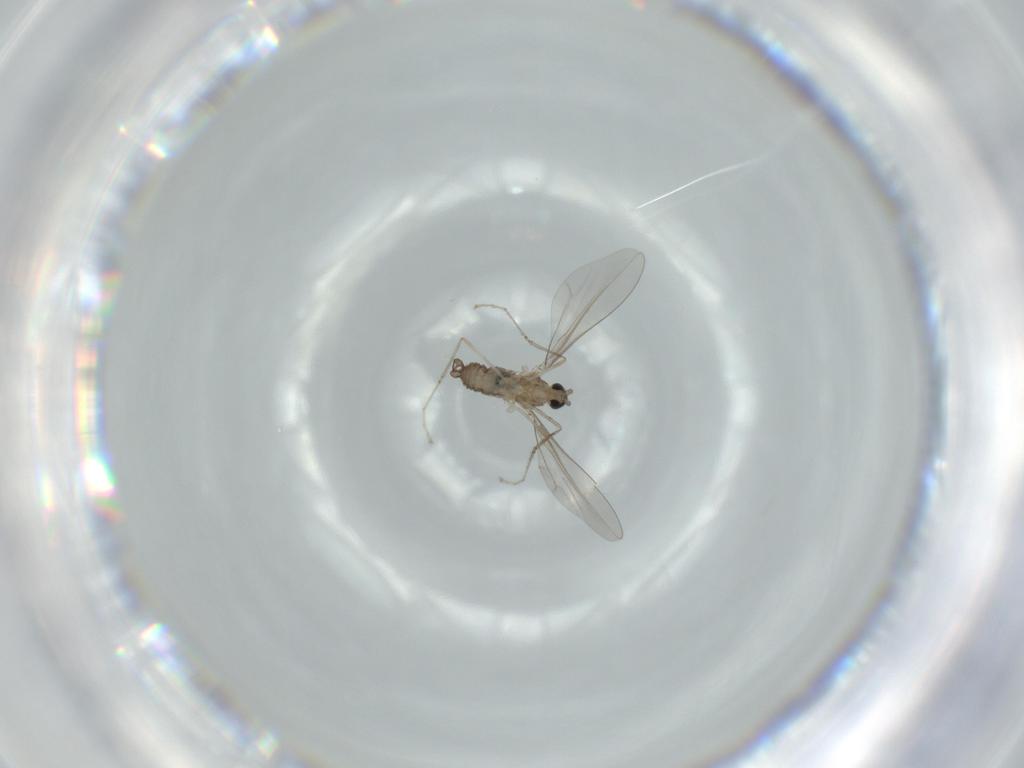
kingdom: Animalia
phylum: Arthropoda
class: Insecta
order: Diptera
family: Cecidomyiidae
